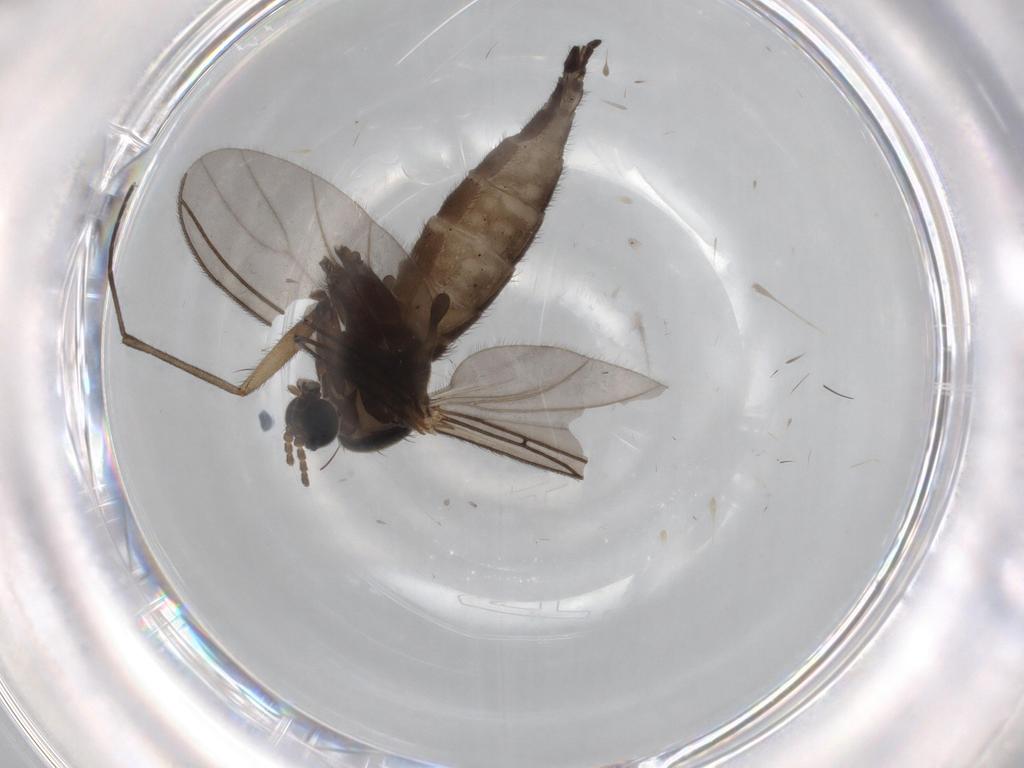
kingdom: Animalia
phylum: Arthropoda
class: Insecta
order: Diptera
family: Sciaridae
